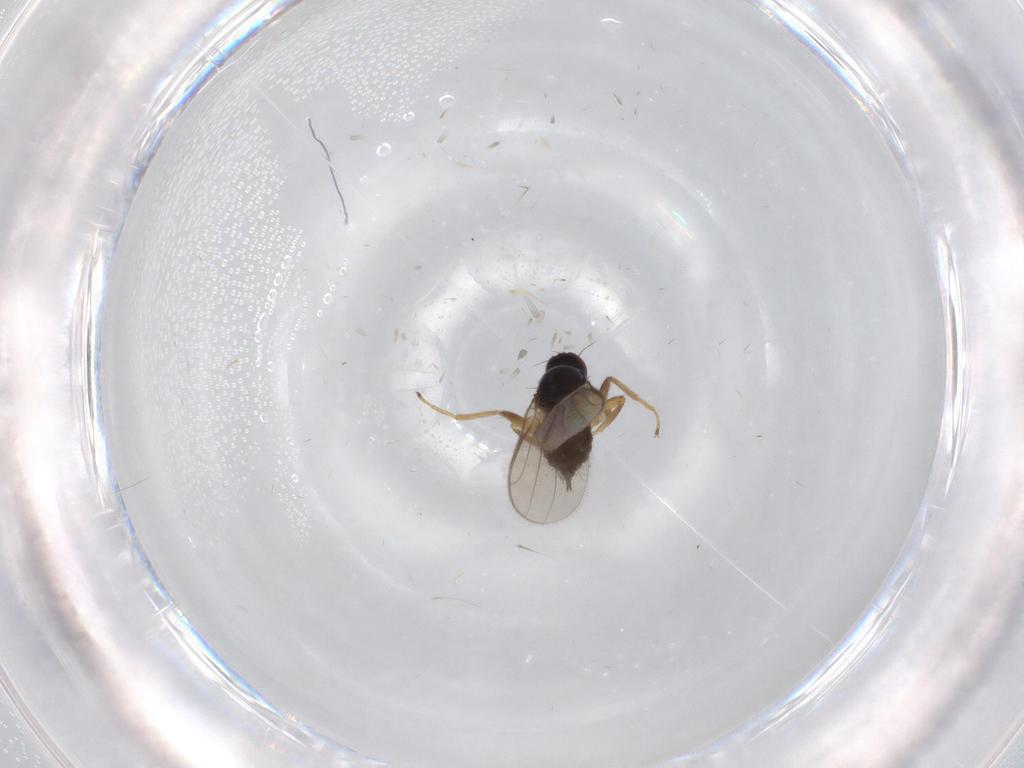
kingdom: Animalia
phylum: Arthropoda
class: Insecta
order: Diptera
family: Hybotidae
